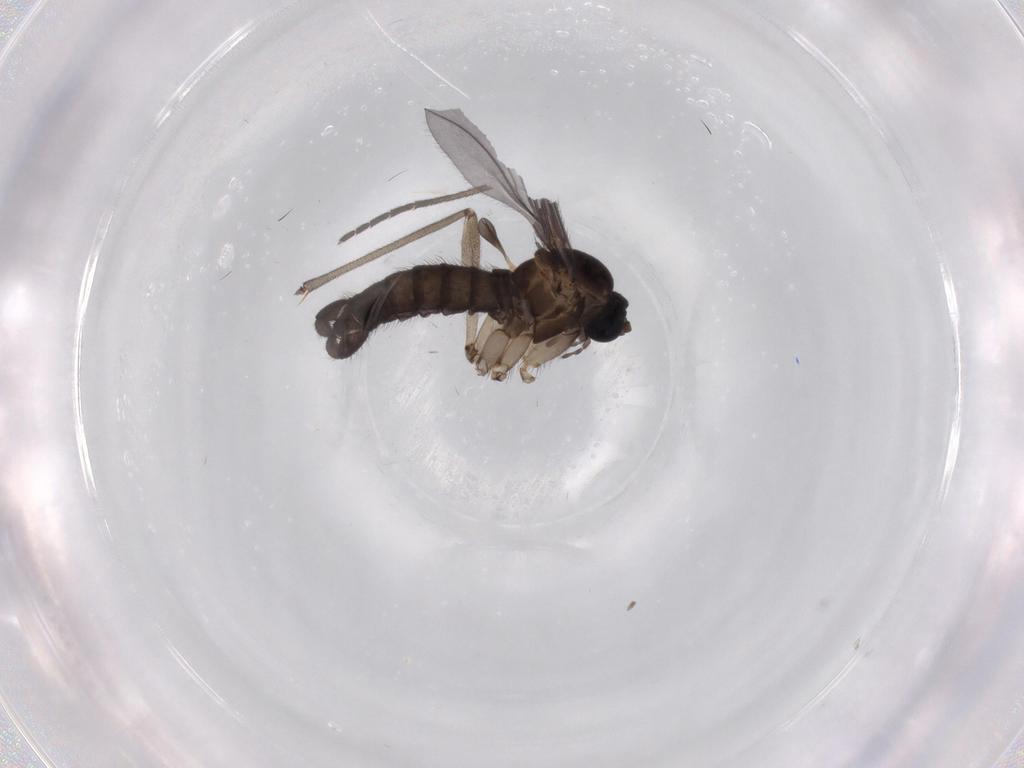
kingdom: Animalia
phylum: Arthropoda
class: Insecta
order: Diptera
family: Sciaridae
